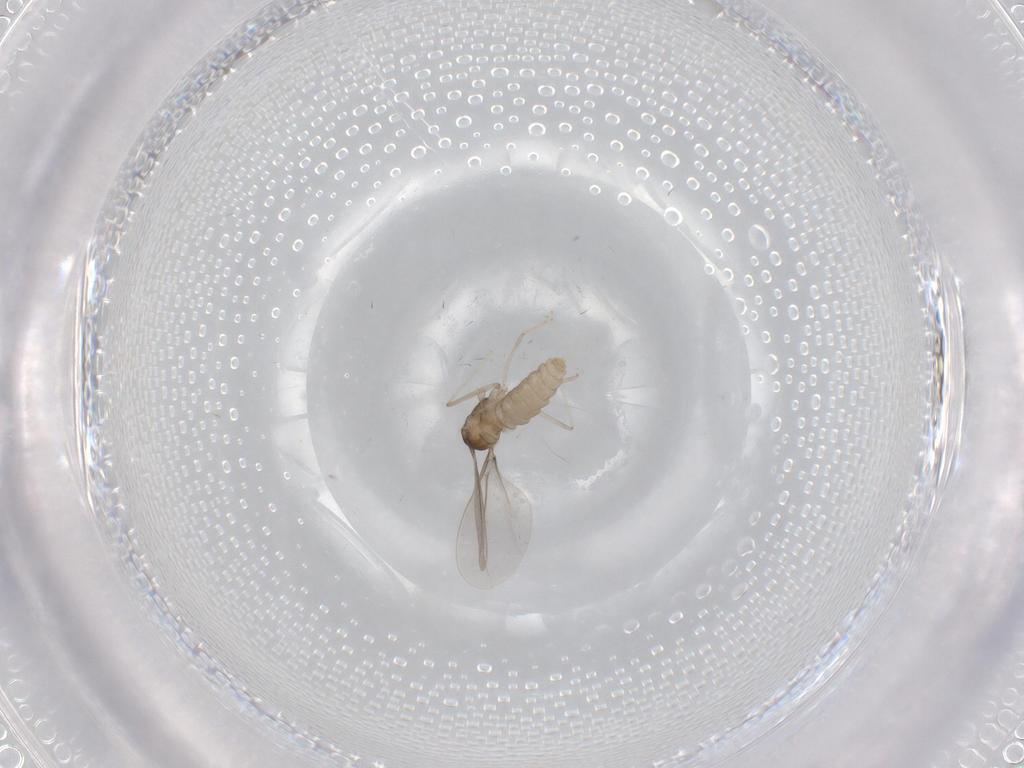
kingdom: Animalia
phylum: Arthropoda
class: Insecta
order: Diptera
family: Cecidomyiidae
